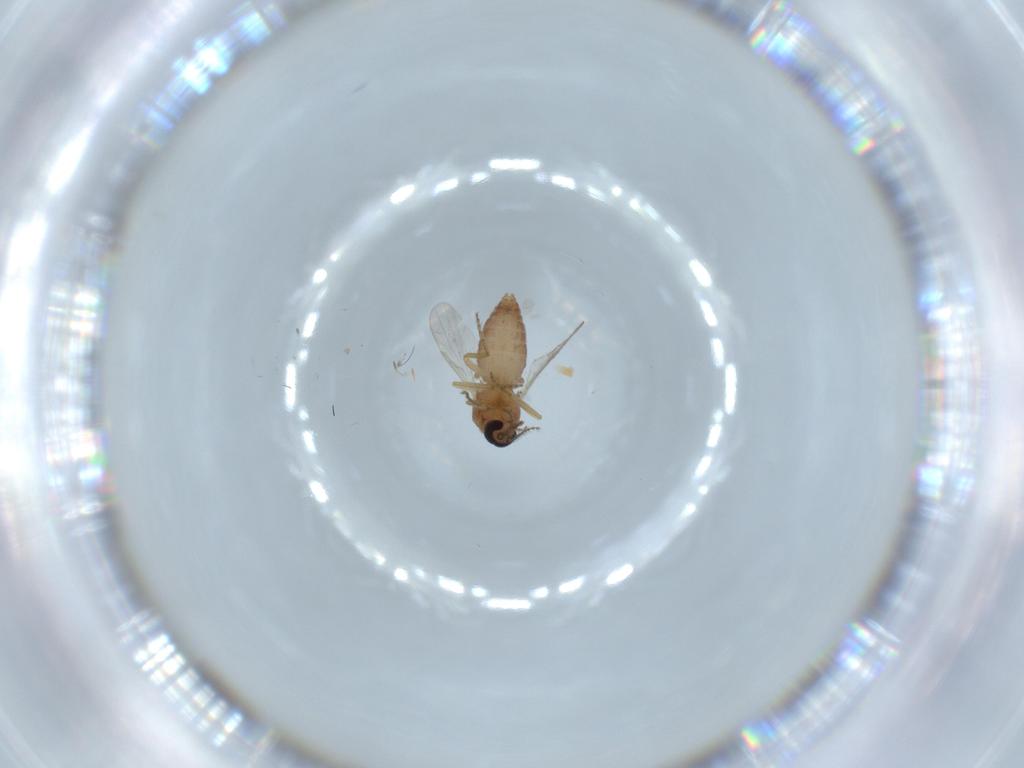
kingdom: Animalia
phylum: Arthropoda
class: Insecta
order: Diptera
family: Ceratopogonidae
